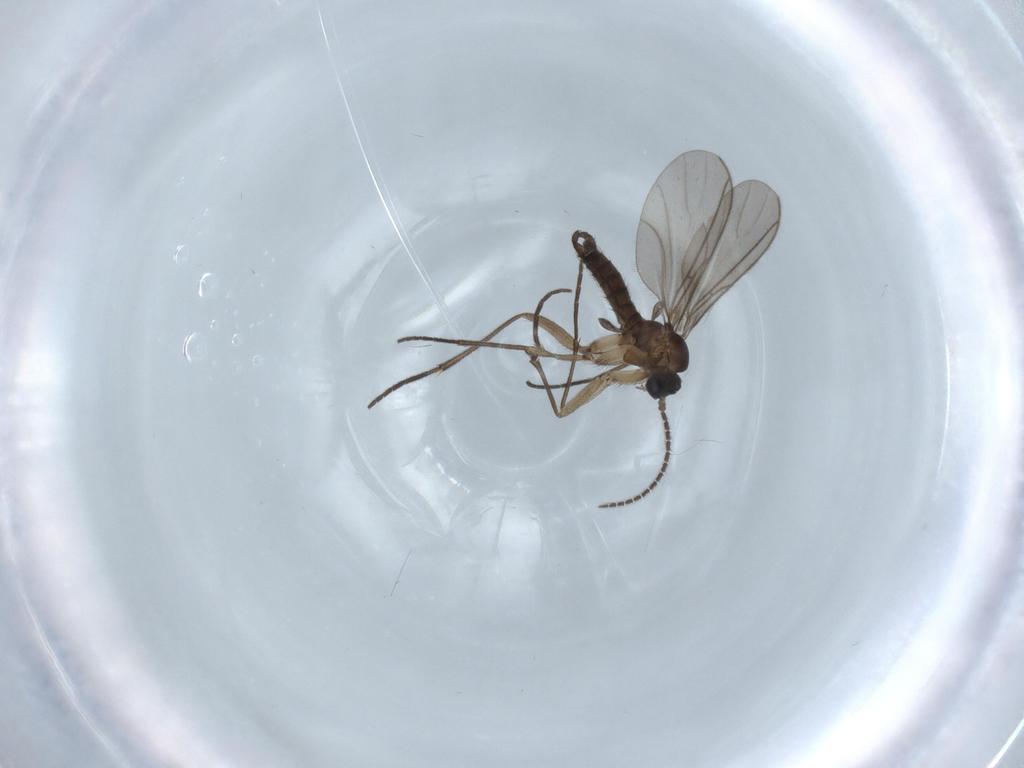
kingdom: Animalia
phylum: Arthropoda
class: Insecta
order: Diptera
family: Sciaridae
